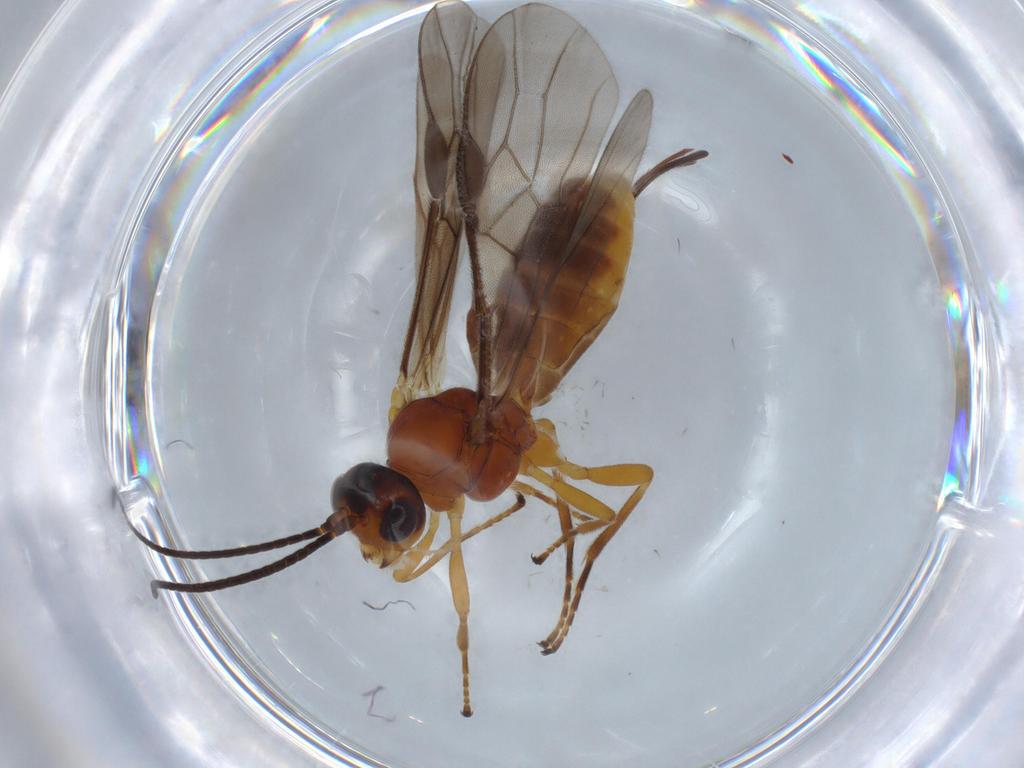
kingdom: Animalia
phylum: Arthropoda
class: Insecta
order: Hymenoptera
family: Braconidae
